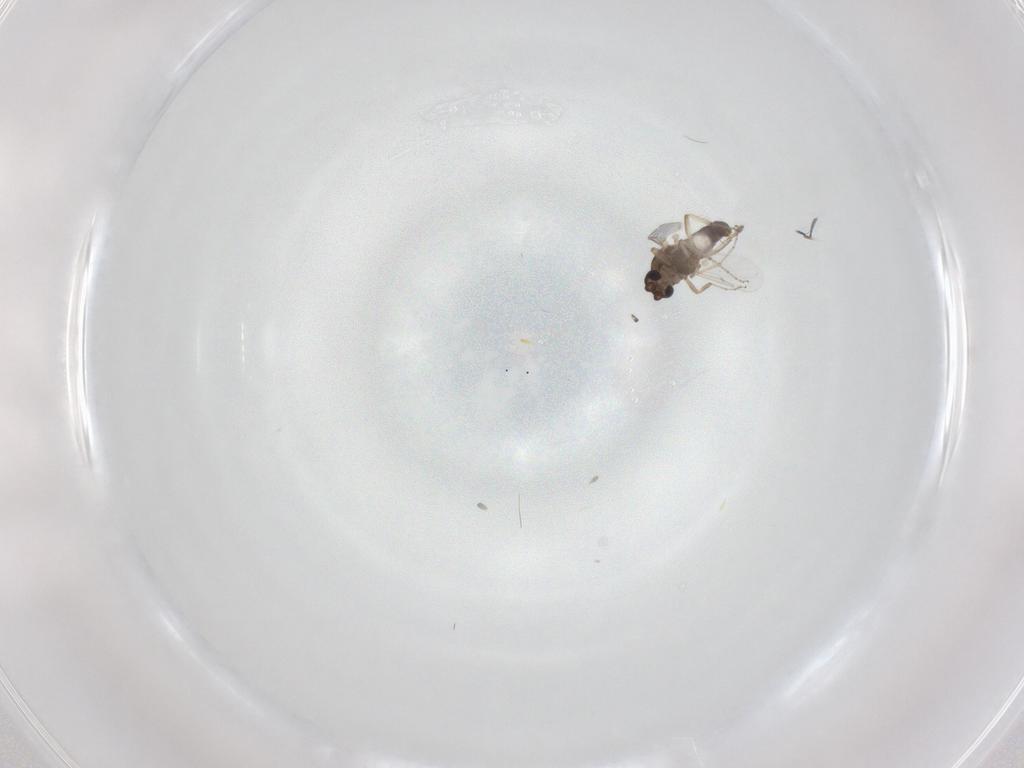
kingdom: Animalia
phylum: Arthropoda
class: Insecta
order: Diptera
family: Ceratopogonidae
